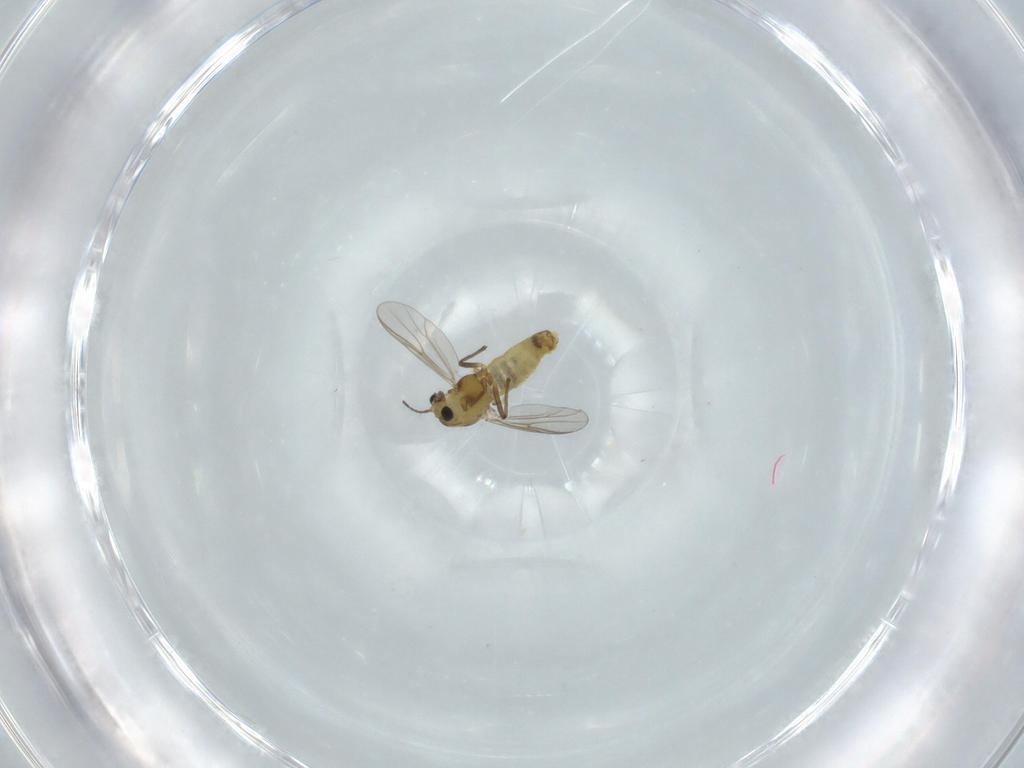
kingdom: Animalia
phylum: Arthropoda
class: Insecta
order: Diptera
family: Chironomidae
